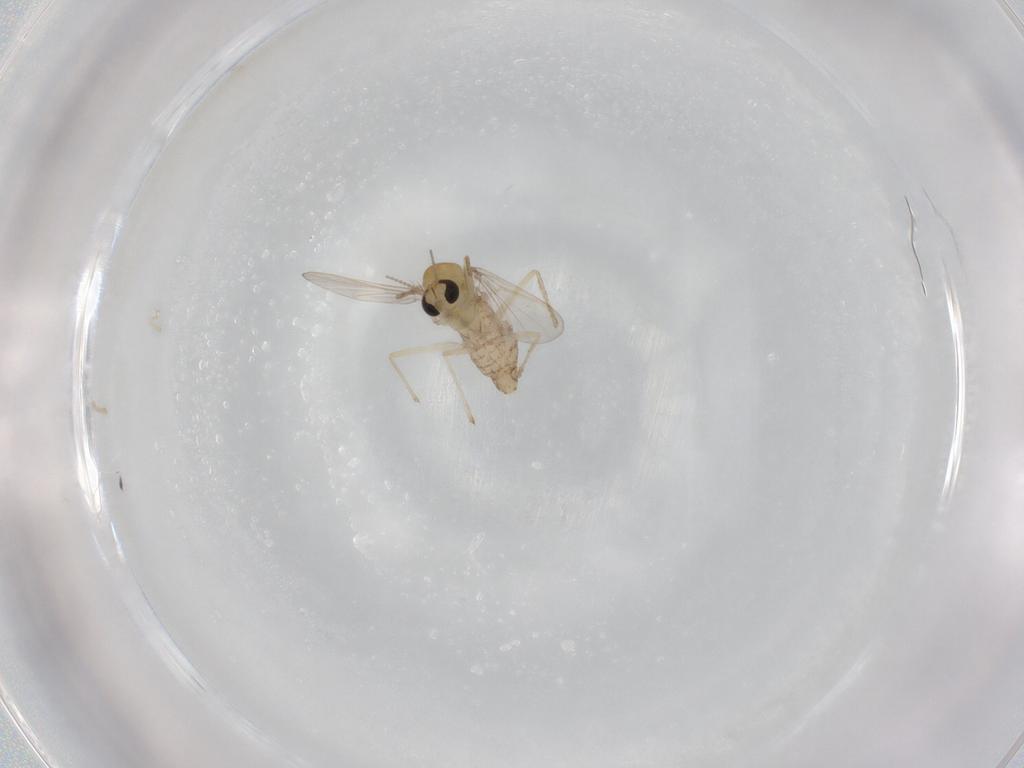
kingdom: Animalia
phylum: Arthropoda
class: Insecta
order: Diptera
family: Chironomidae
